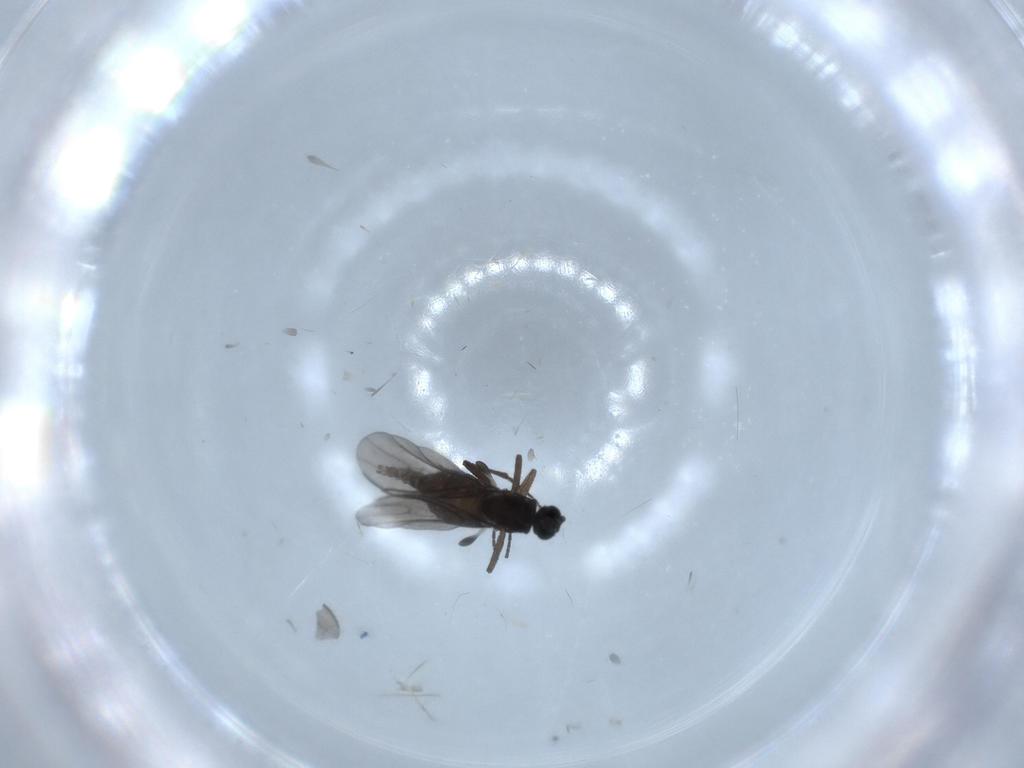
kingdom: Animalia
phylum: Arthropoda
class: Insecta
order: Diptera
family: Sciaridae
